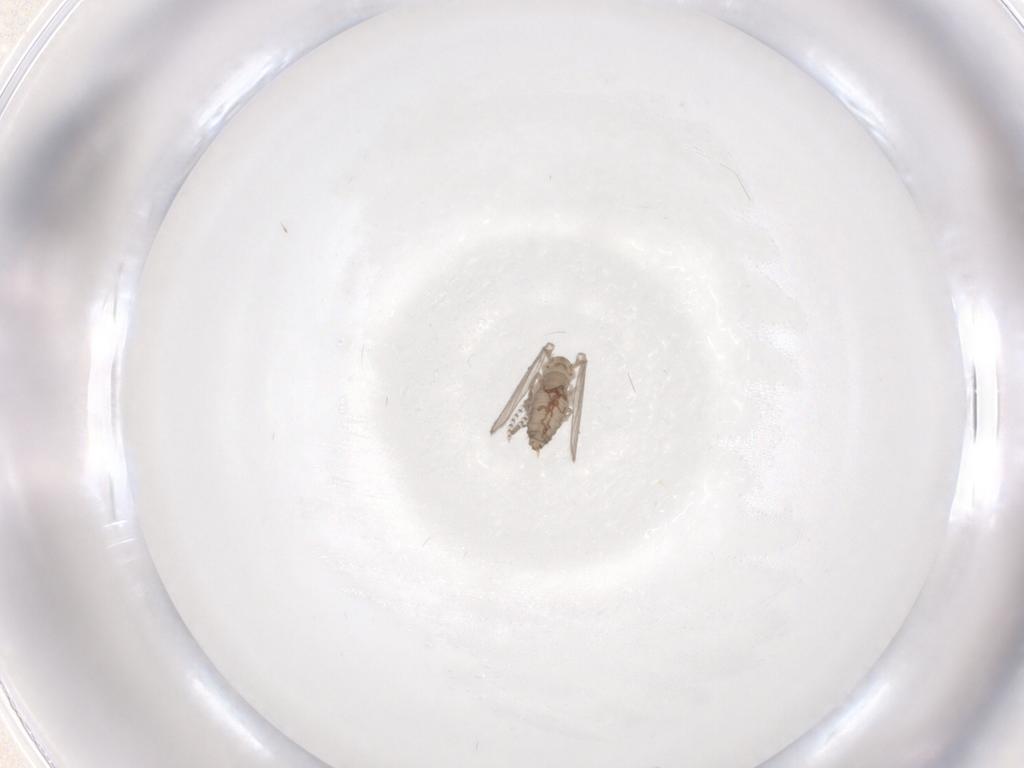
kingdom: Animalia
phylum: Arthropoda
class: Insecta
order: Diptera
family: Psychodidae
